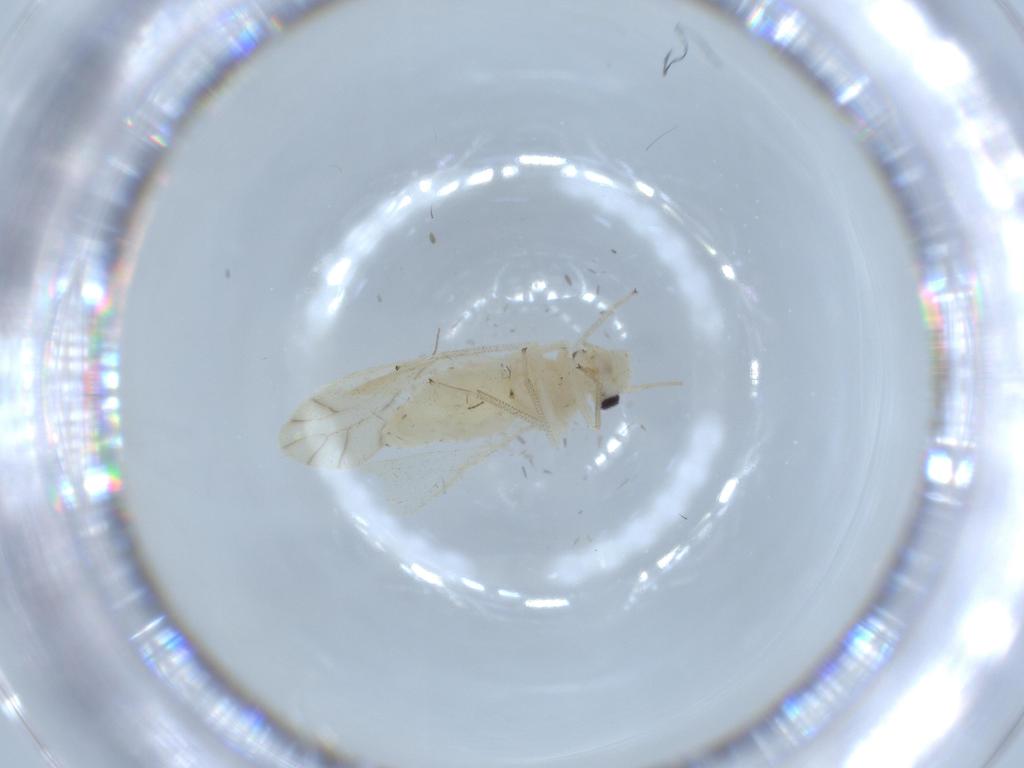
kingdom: Animalia
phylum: Arthropoda
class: Insecta
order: Psocodea
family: Caeciliusidae
